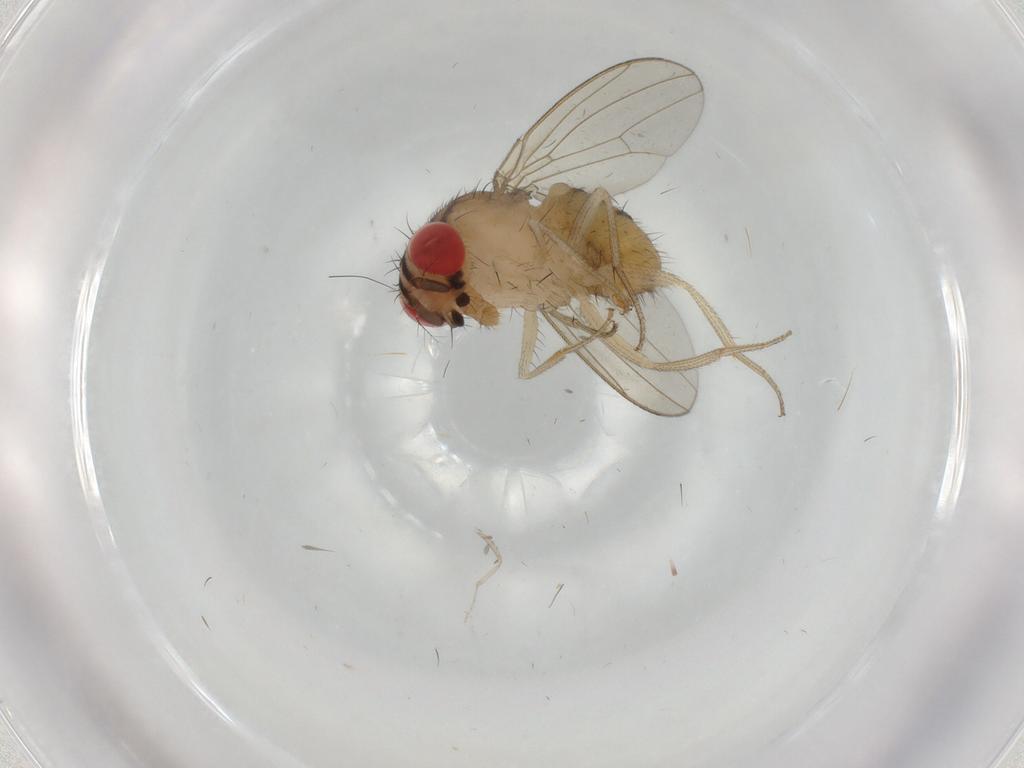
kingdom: Animalia
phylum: Arthropoda
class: Insecta
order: Diptera
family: Drosophilidae
